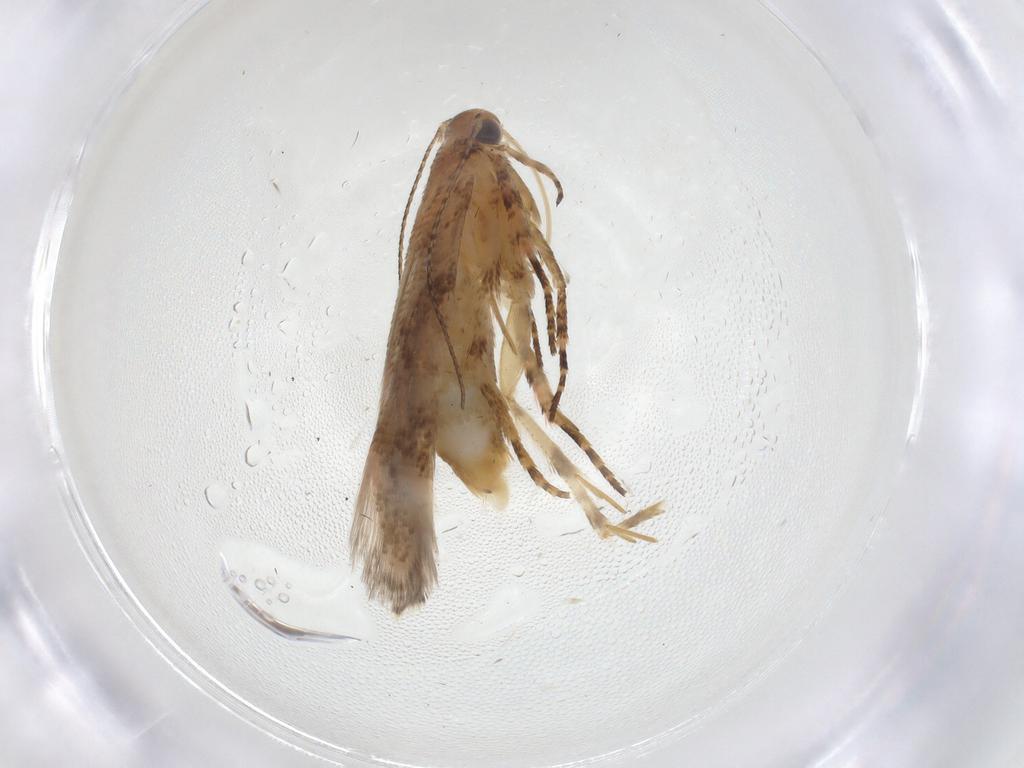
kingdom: Animalia
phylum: Arthropoda
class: Insecta
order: Lepidoptera
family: Gelechiidae
